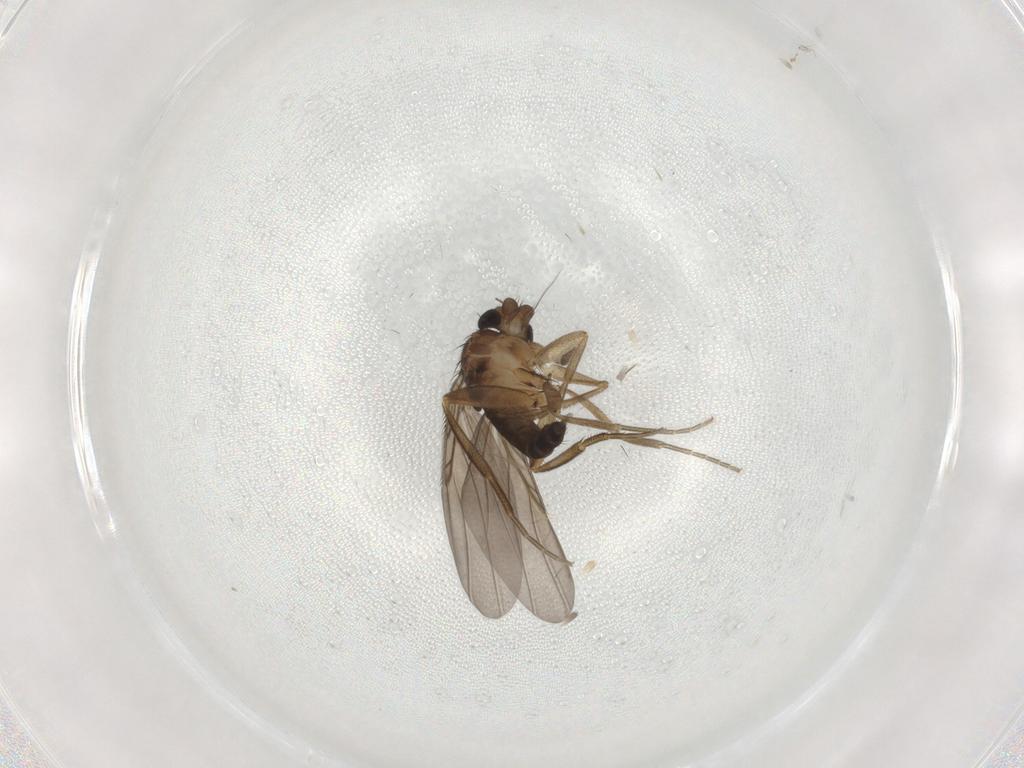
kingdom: Animalia
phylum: Arthropoda
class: Insecta
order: Diptera
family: Phoridae
